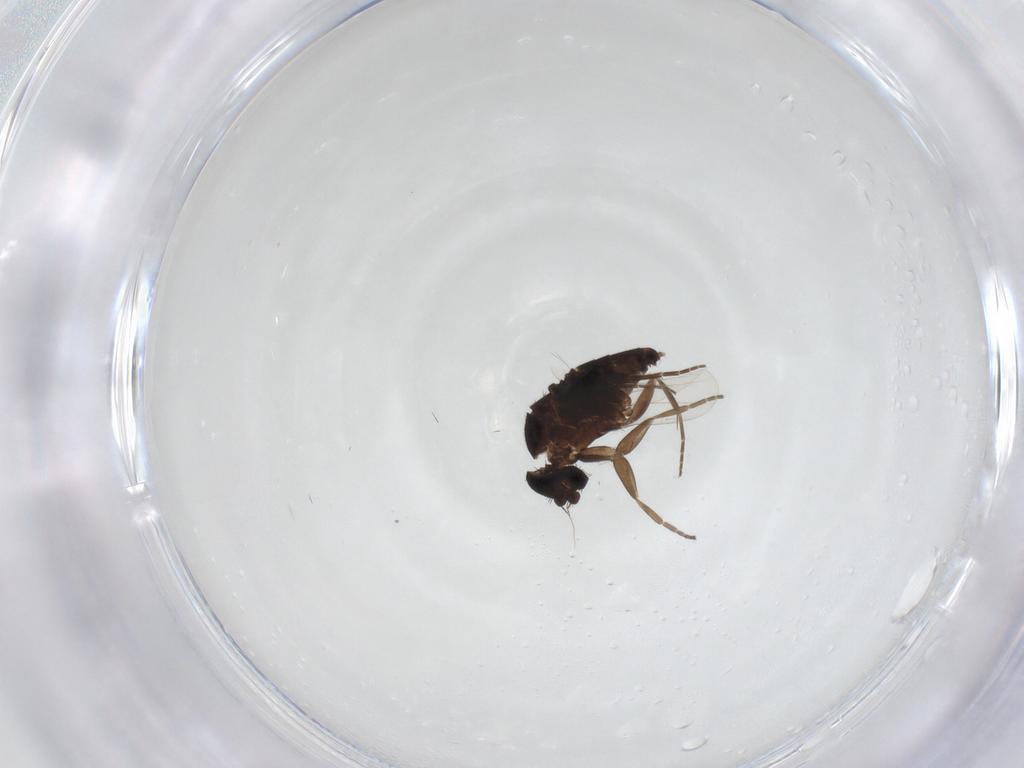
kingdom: Animalia
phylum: Arthropoda
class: Insecta
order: Diptera
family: Phoridae
